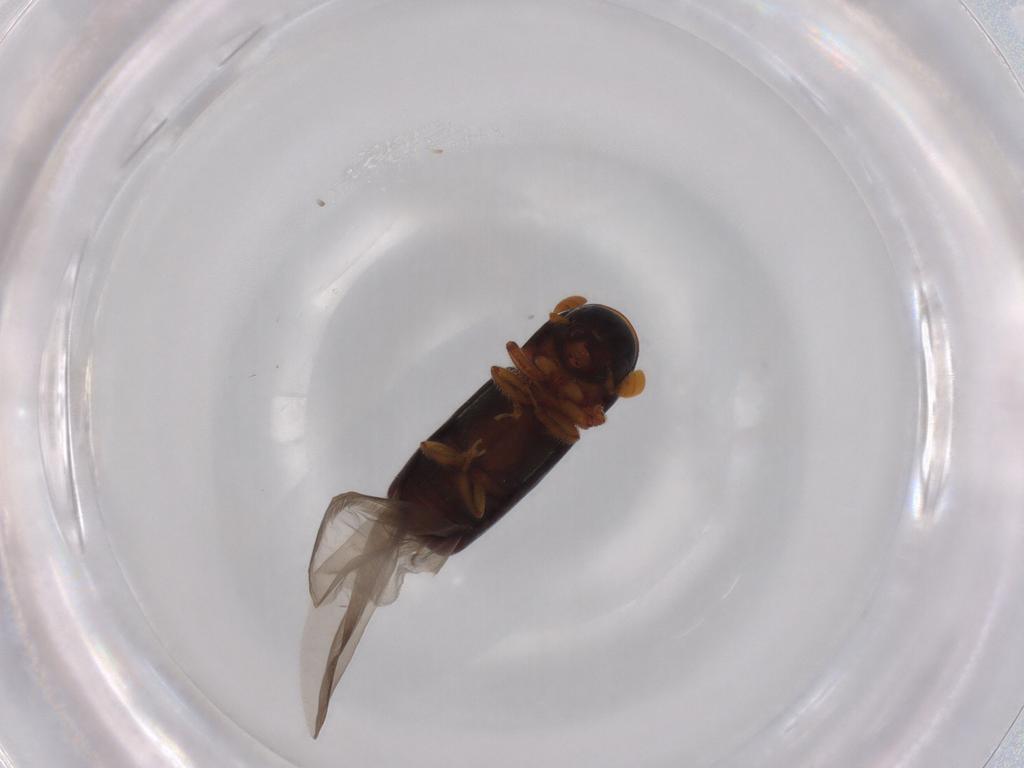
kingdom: Animalia
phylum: Arthropoda
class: Insecta
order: Coleoptera
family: Curculionidae
